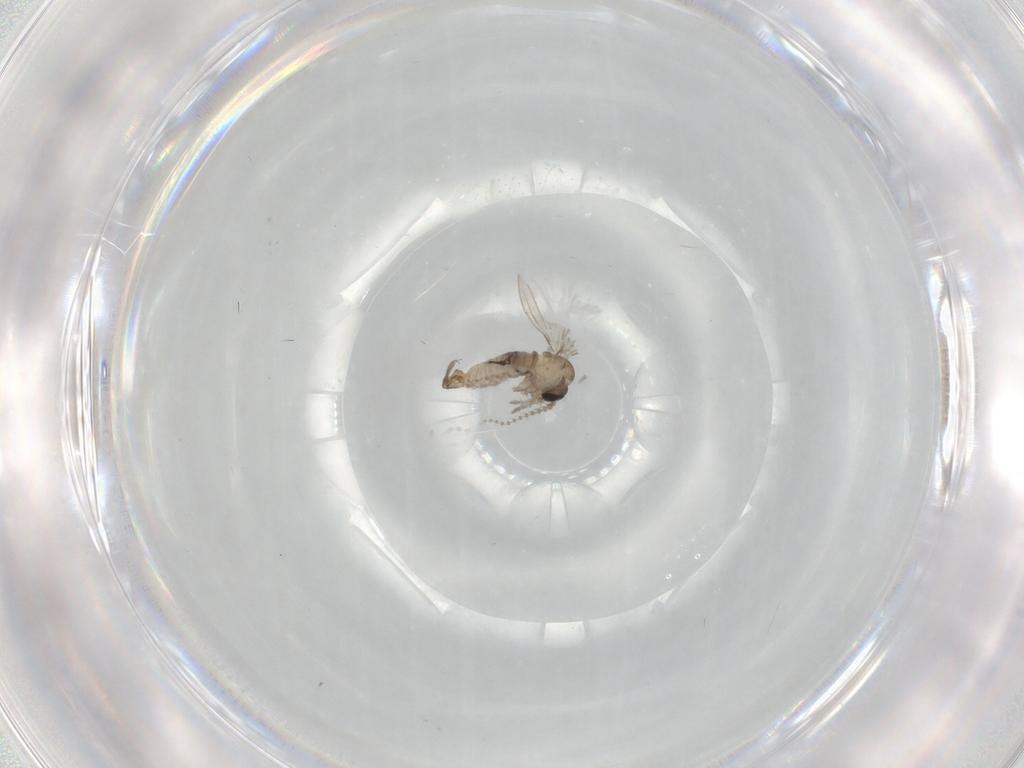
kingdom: Animalia
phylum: Arthropoda
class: Insecta
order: Diptera
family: Psychodidae
